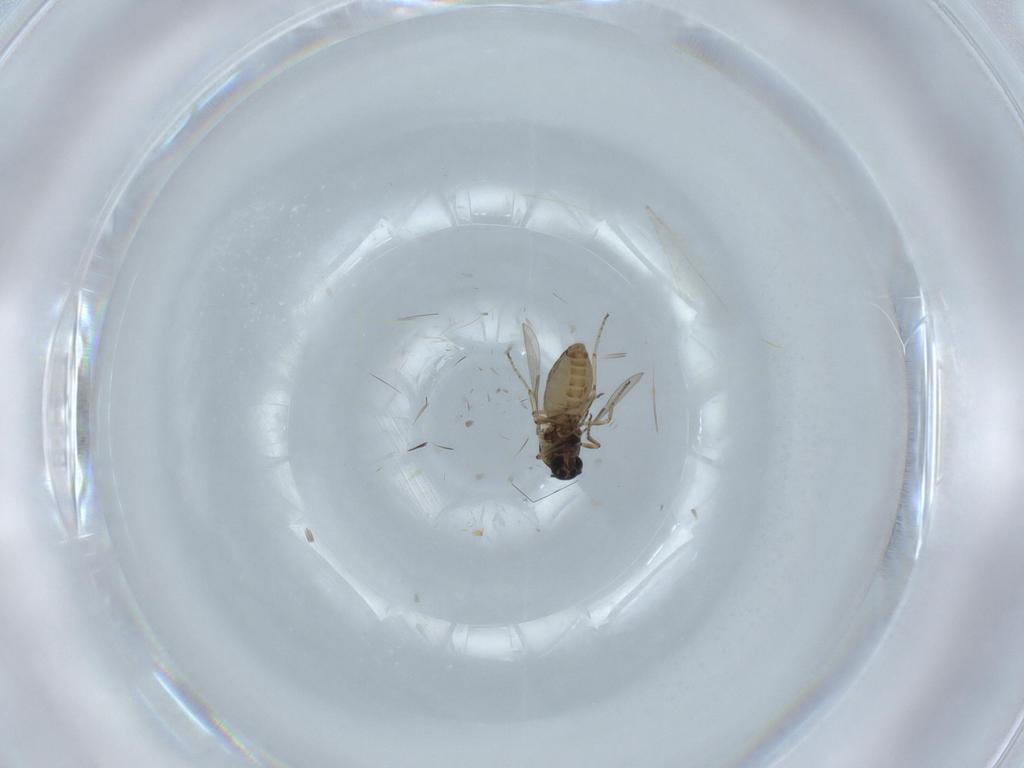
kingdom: Animalia
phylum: Arthropoda
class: Insecta
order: Diptera
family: Ceratopogonidae
